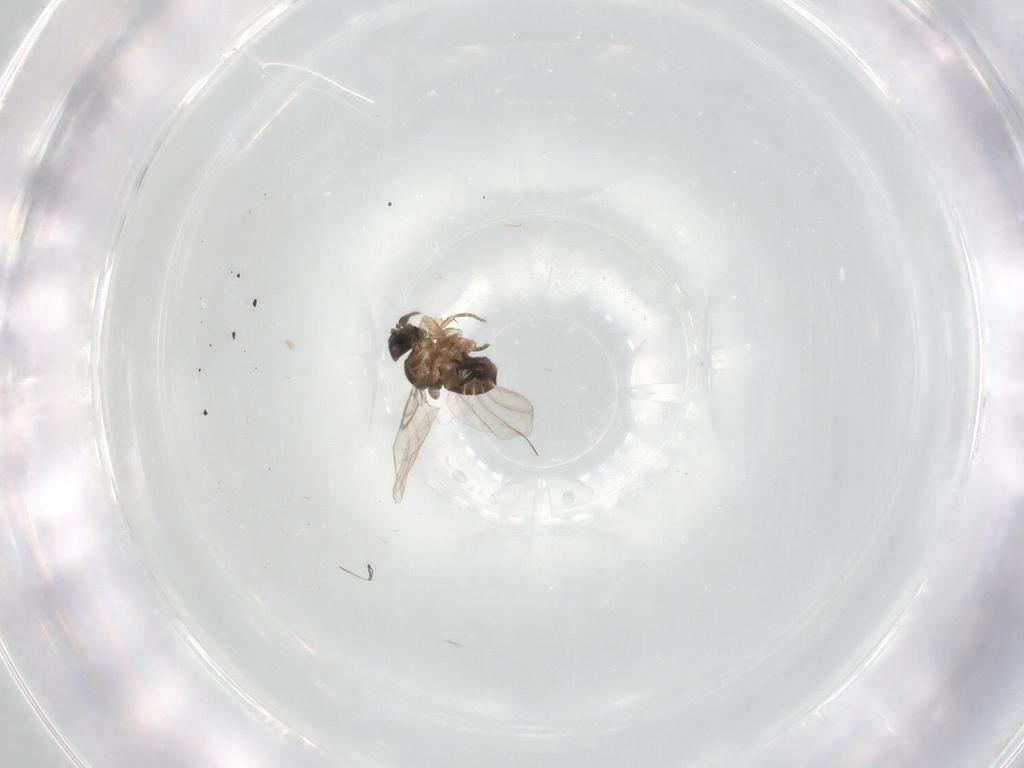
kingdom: Animalia
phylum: Arthropoda
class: Insecta
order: Diptera
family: Phoridae
